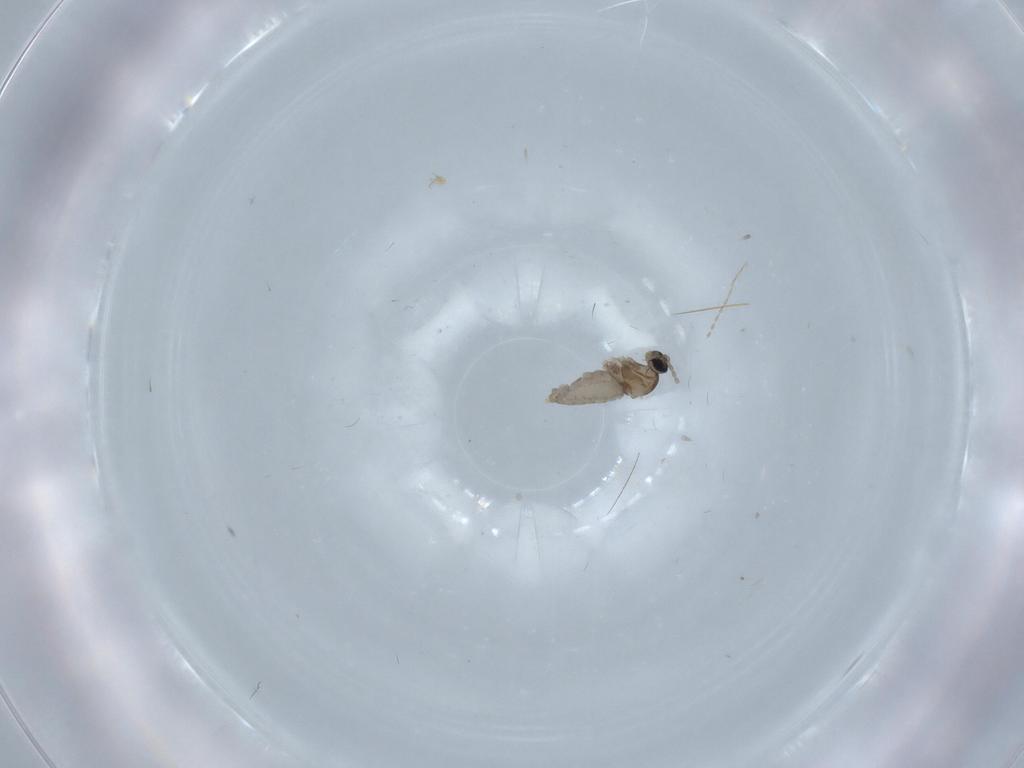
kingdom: Animalia
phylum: Arthropoda
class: Insecta
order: Diptera
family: Cecidomyiidae
